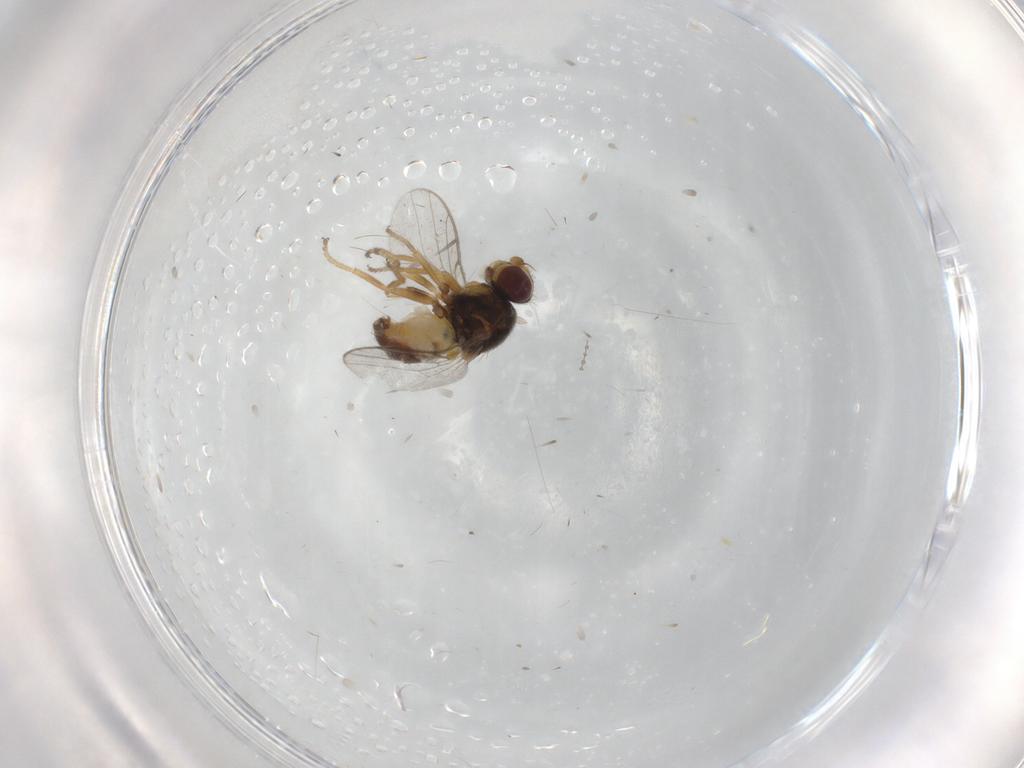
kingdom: Animalia
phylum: Arthropoda
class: Insecta
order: Diptera
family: Chloropidae
